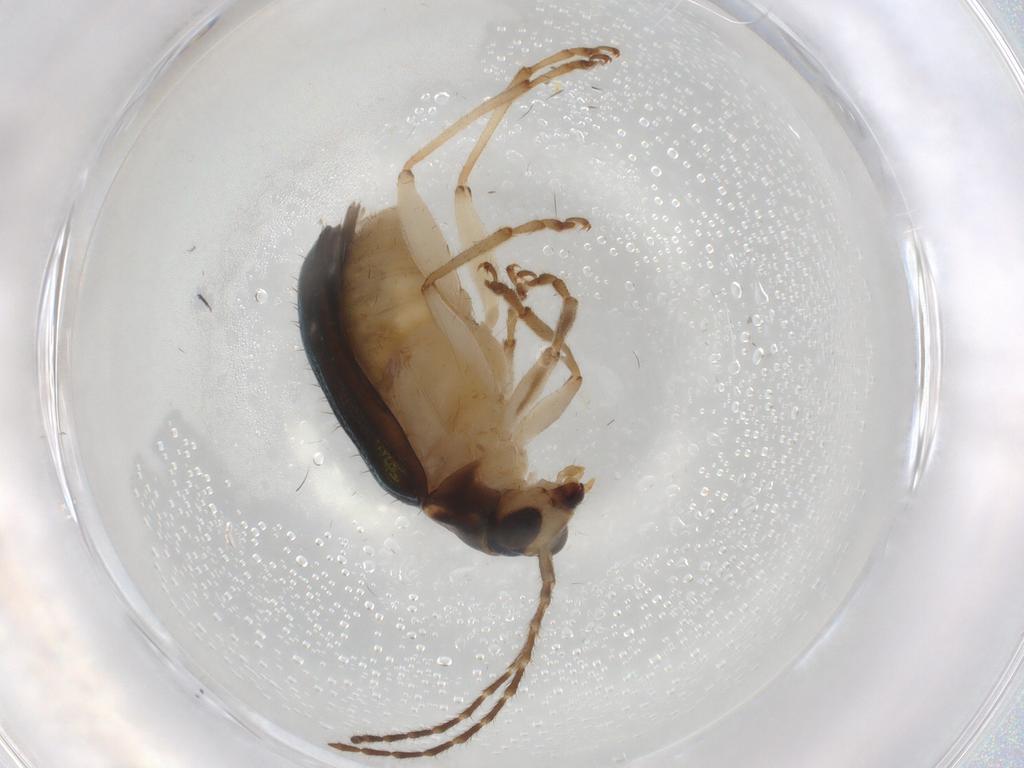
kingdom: Animalia
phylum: Arthropoda
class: Insecta
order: Coleoptera
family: Chrysomelidae
